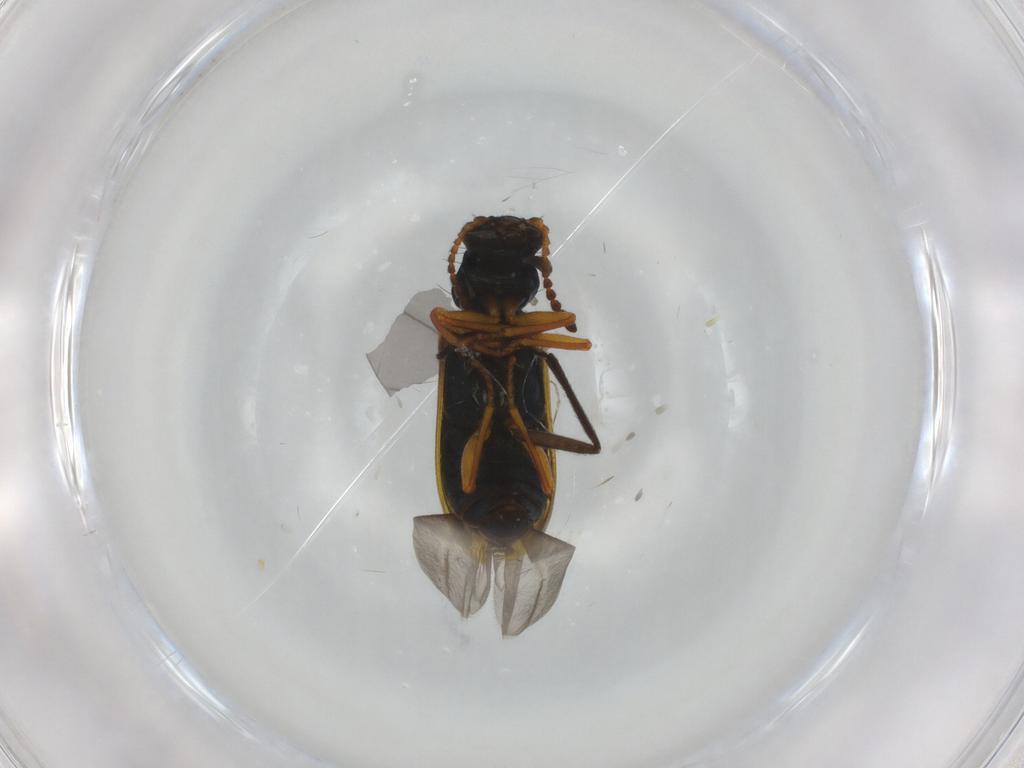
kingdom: Animalia
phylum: Arthropoda
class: Insecta
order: Coleoptera
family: Melyridae
